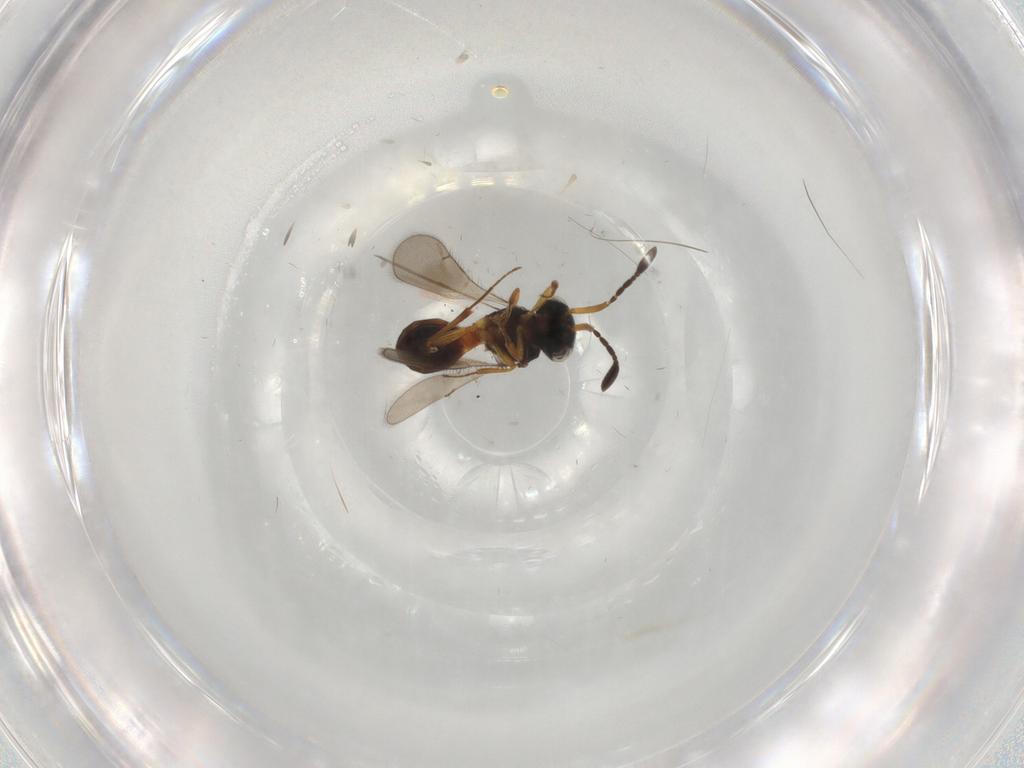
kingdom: Animalia
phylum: Arthropoda
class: Insecta
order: Hymenoptera
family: Scelionidae
